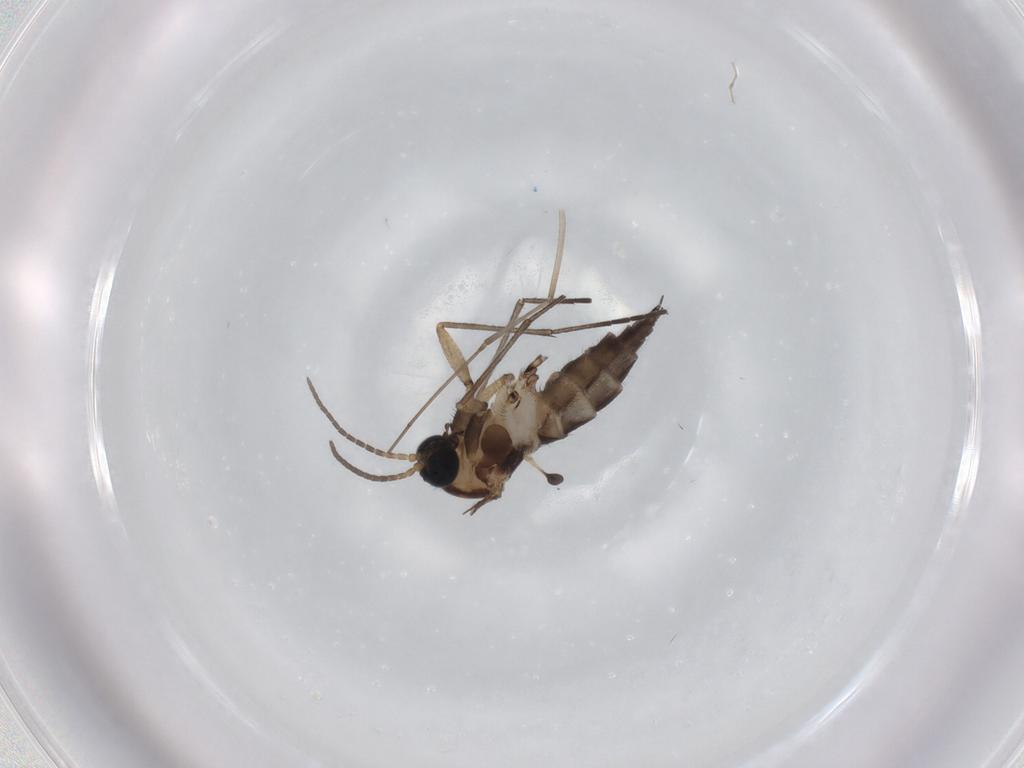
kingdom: Animalia
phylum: Arthropoda
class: Insecta
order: Diptera
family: Sciaridae
